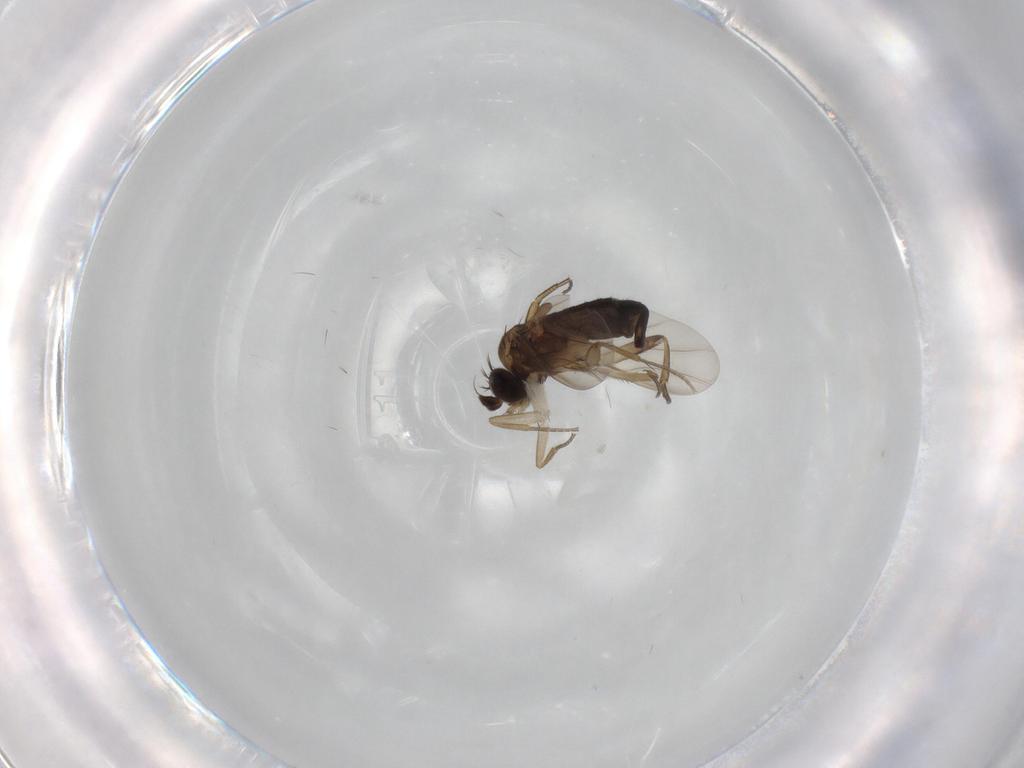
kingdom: Animalia
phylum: Arthropoda
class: Insecta
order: Diptera
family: Phoridae
